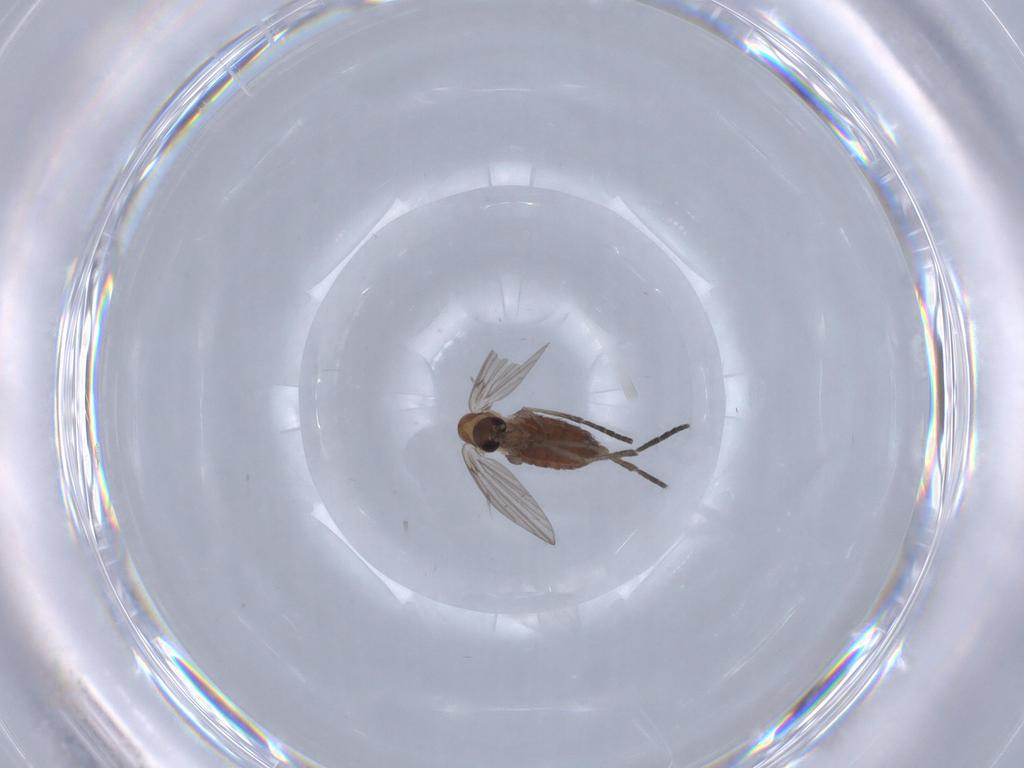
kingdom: Animalia
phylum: Arthropoda
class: Insecta
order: Diptera
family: Psychodidae
